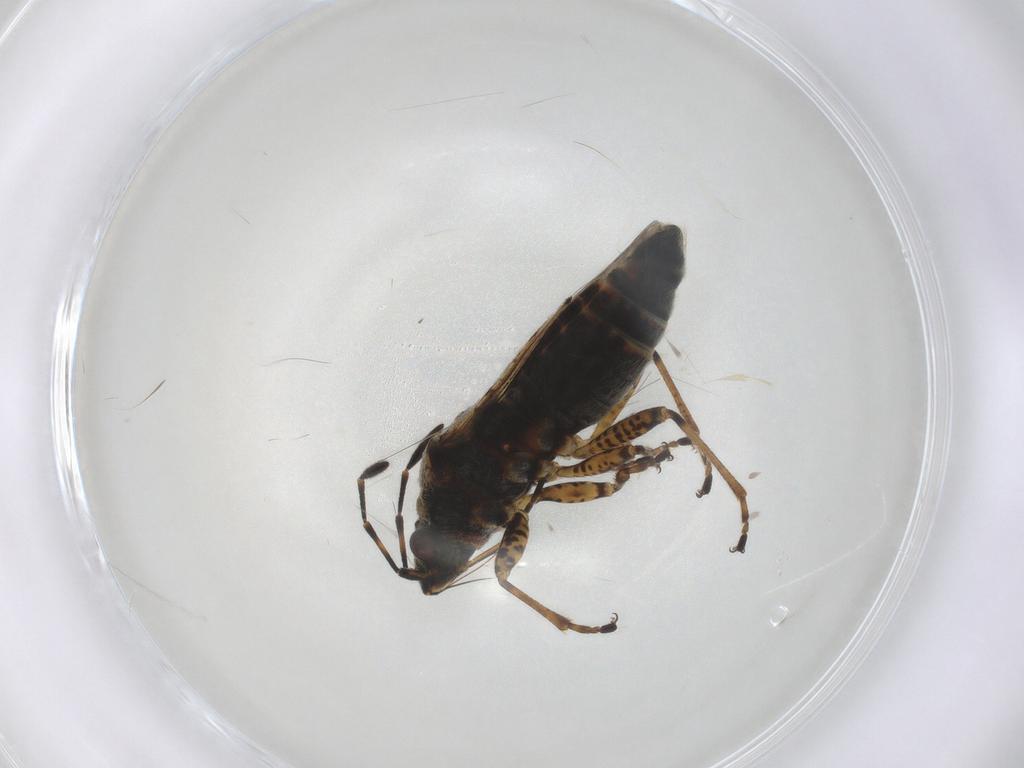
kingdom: Animalia
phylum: Arthropoda
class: Insecta
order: Hemiptera
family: Lygaeidae
